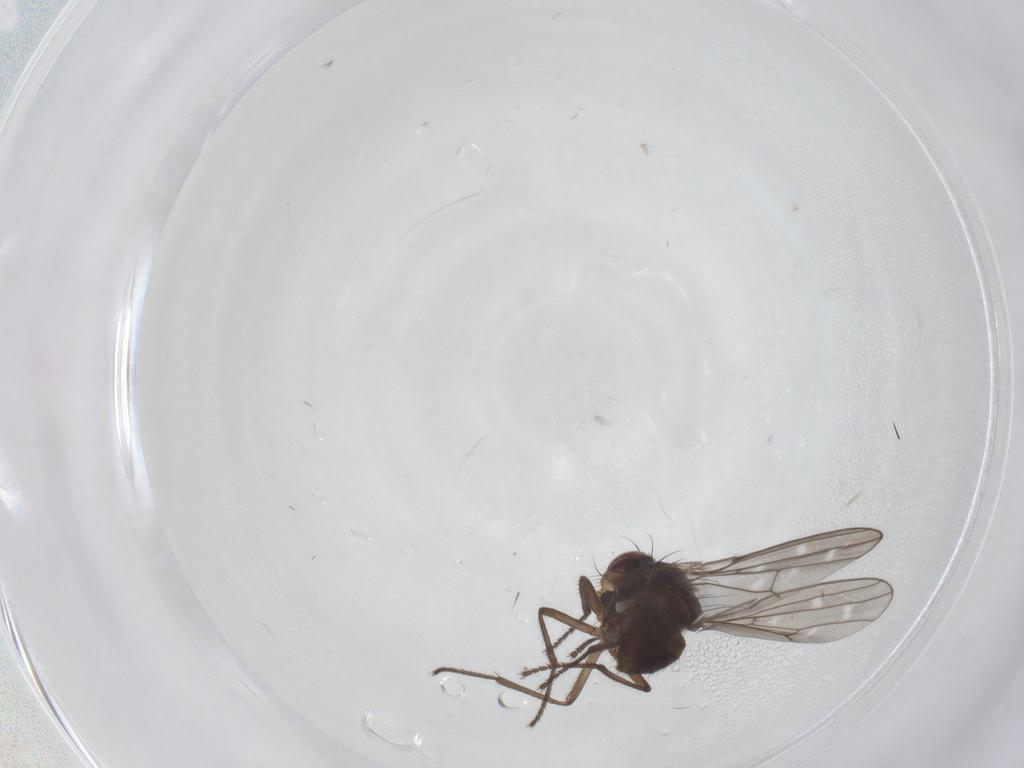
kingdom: Animalia
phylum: Arthropoda
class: Insecta
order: Diptera
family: Ephydridae
